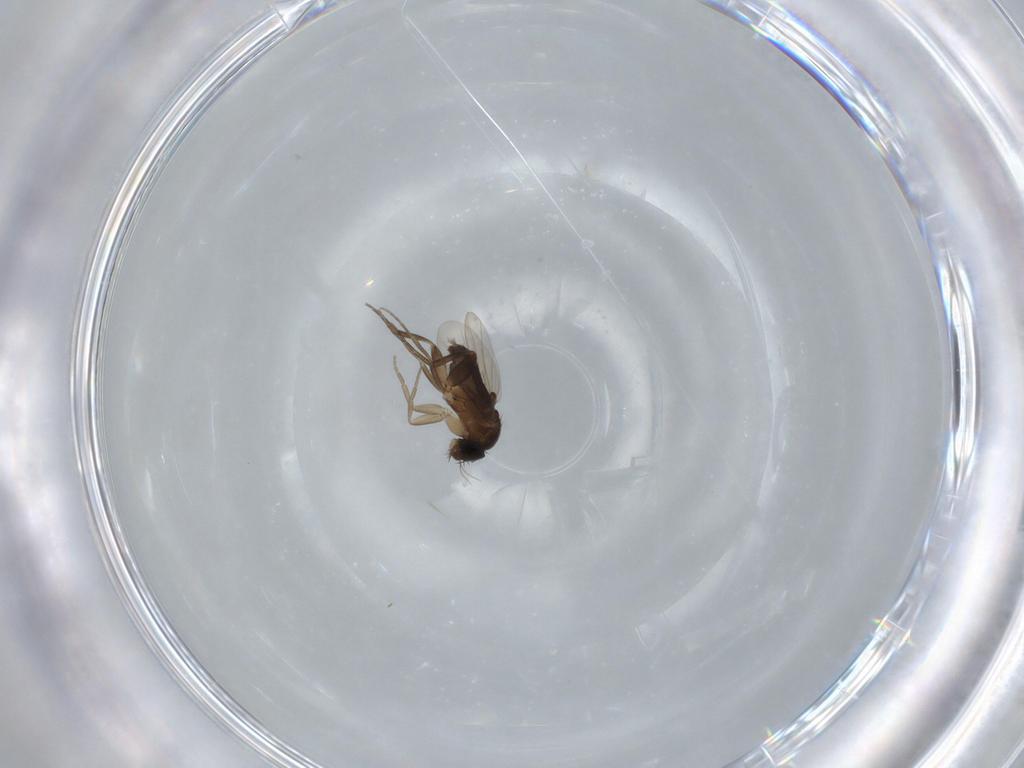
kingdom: Animalia
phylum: Arthropoda
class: Insecta
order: Diptera
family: Phoridae
